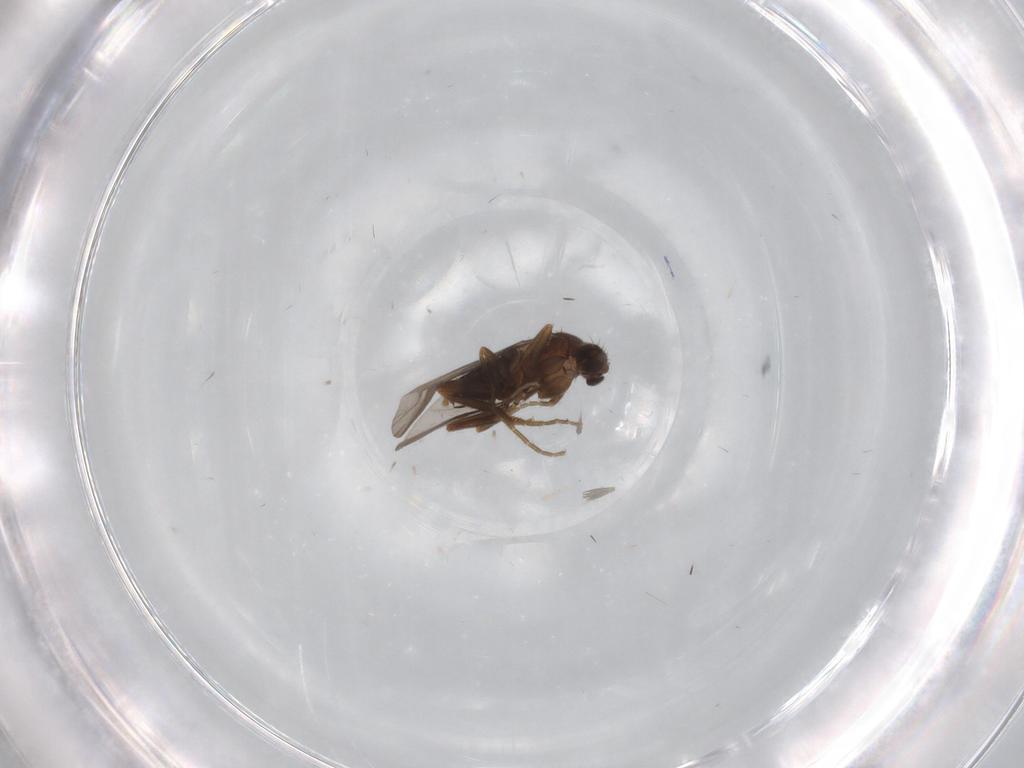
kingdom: Animalia
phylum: Arthropoda
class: Insecta
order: Diptera
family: Phoridae
